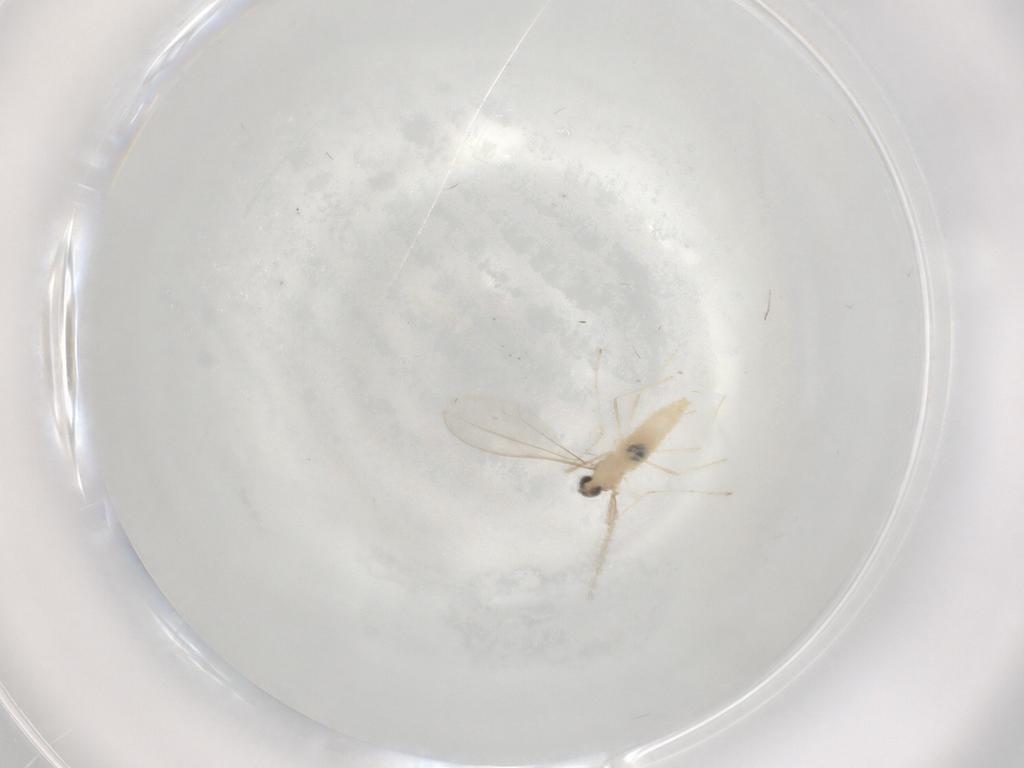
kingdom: Animalia
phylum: Arthropoda
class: Insecta
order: Diptera
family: Cecidomyiidae
